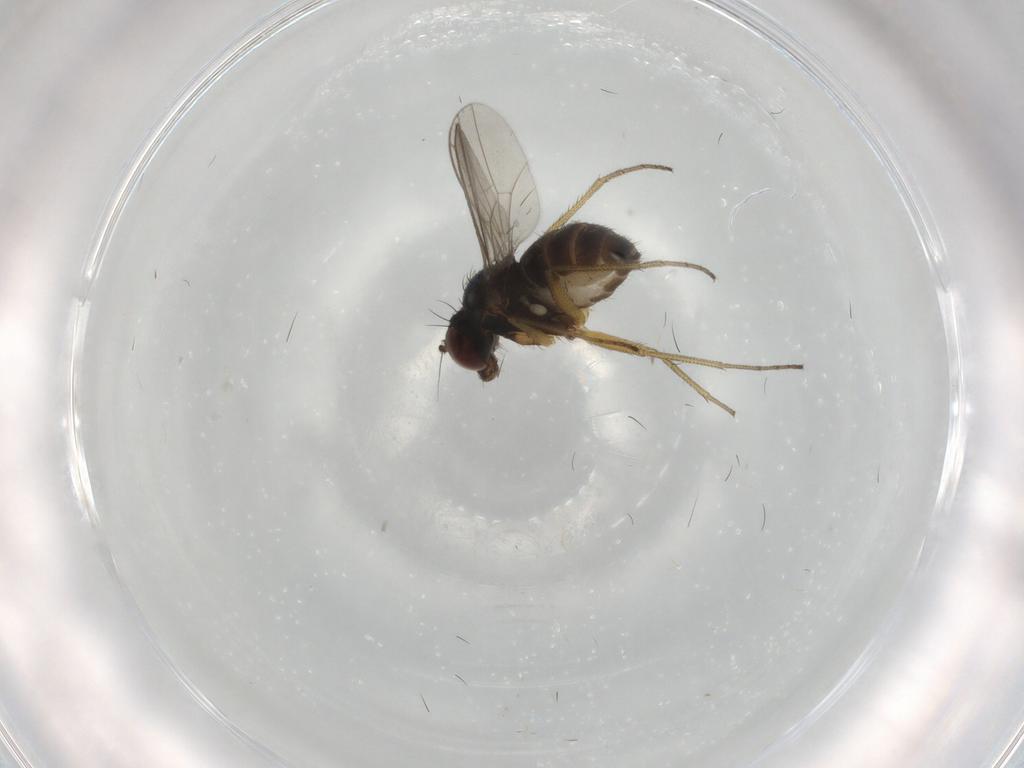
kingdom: Animalia
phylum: Arthropoda
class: Insecta
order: Diptera
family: Dolichopodidae
